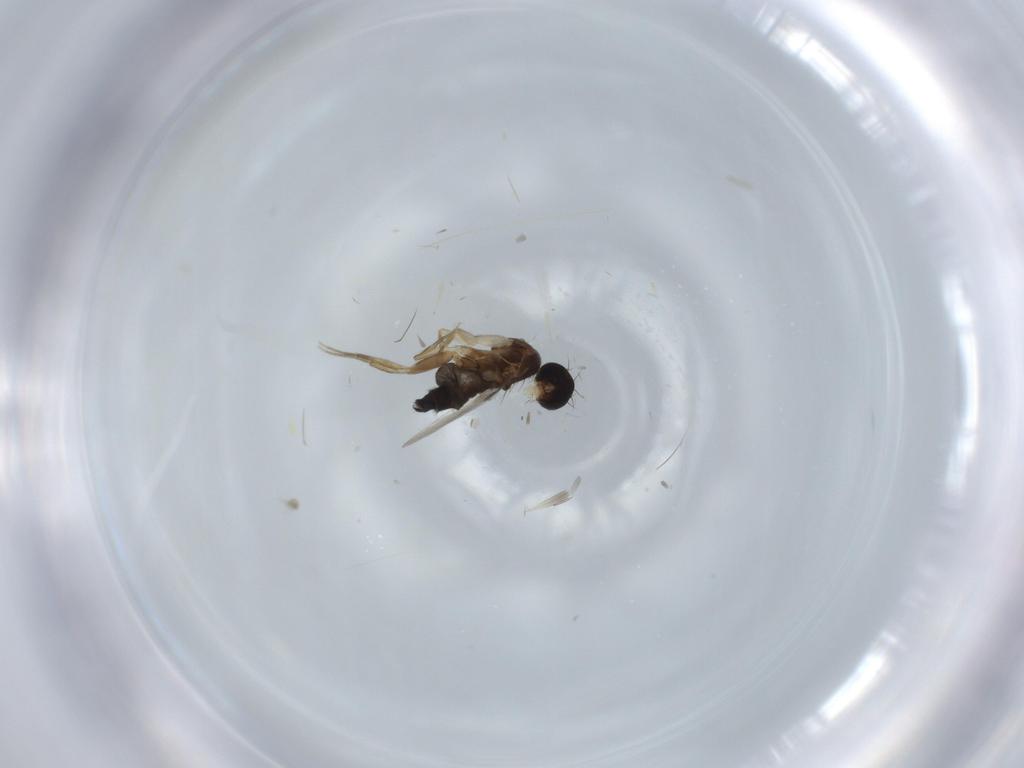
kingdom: Animalia
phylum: Arthropoda
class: Insecta
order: Diptera
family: Phoridae
